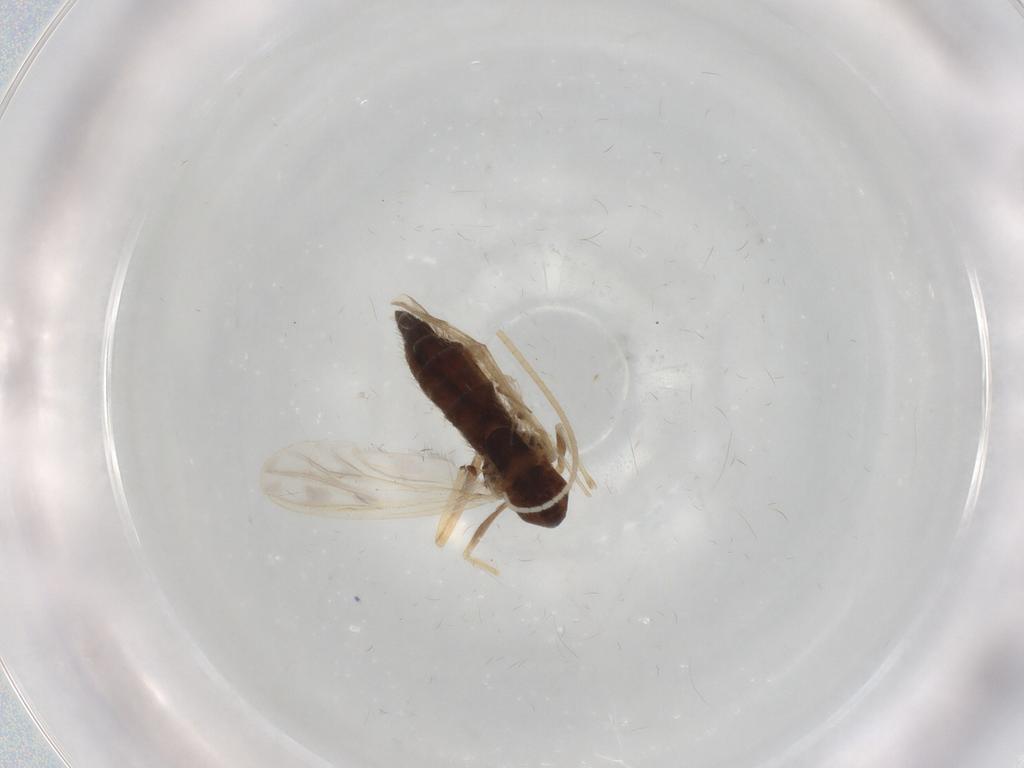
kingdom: Animalia
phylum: Arthropoda
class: Insecta
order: Diptera
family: Chironomidae
